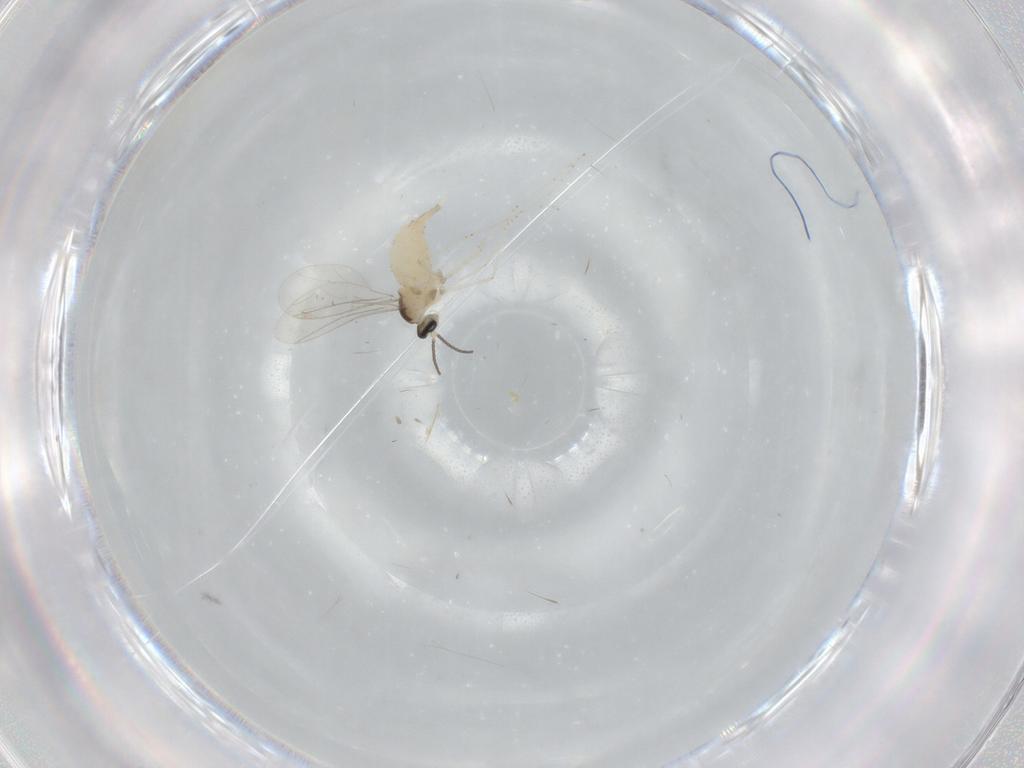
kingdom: Animalia
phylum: Arthropoda
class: Insecta
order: Diptera
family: Cecidomyiidae
